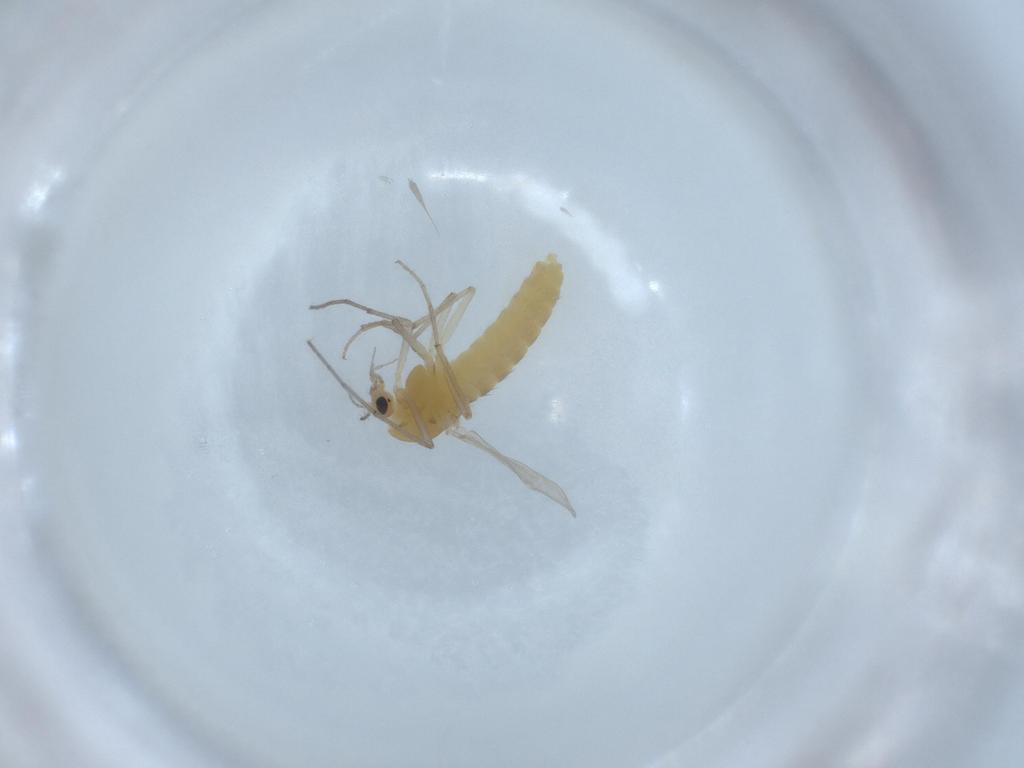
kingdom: Animalia
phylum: Arthropoda
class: Insecta
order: Diptera
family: Chironomidae
